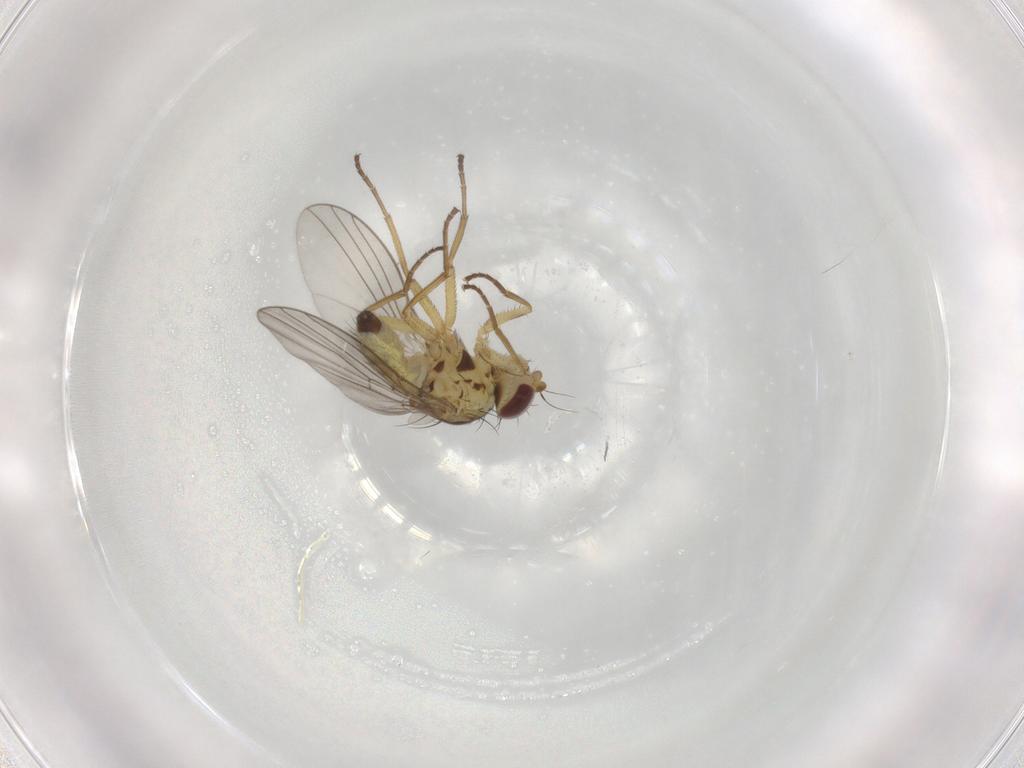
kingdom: Animalia
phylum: Arthropoda
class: Insecta
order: Diptera
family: Agromyzidae
